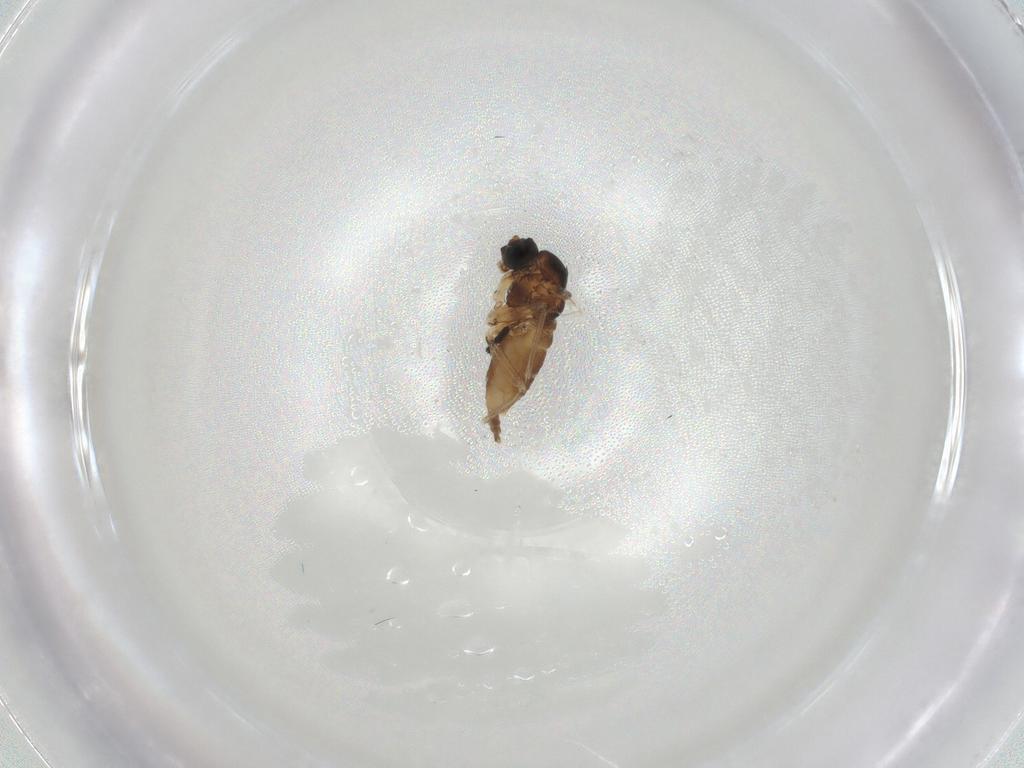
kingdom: Animalia
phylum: Arthropoda
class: Insecta
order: Diptera
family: Sciaridae
